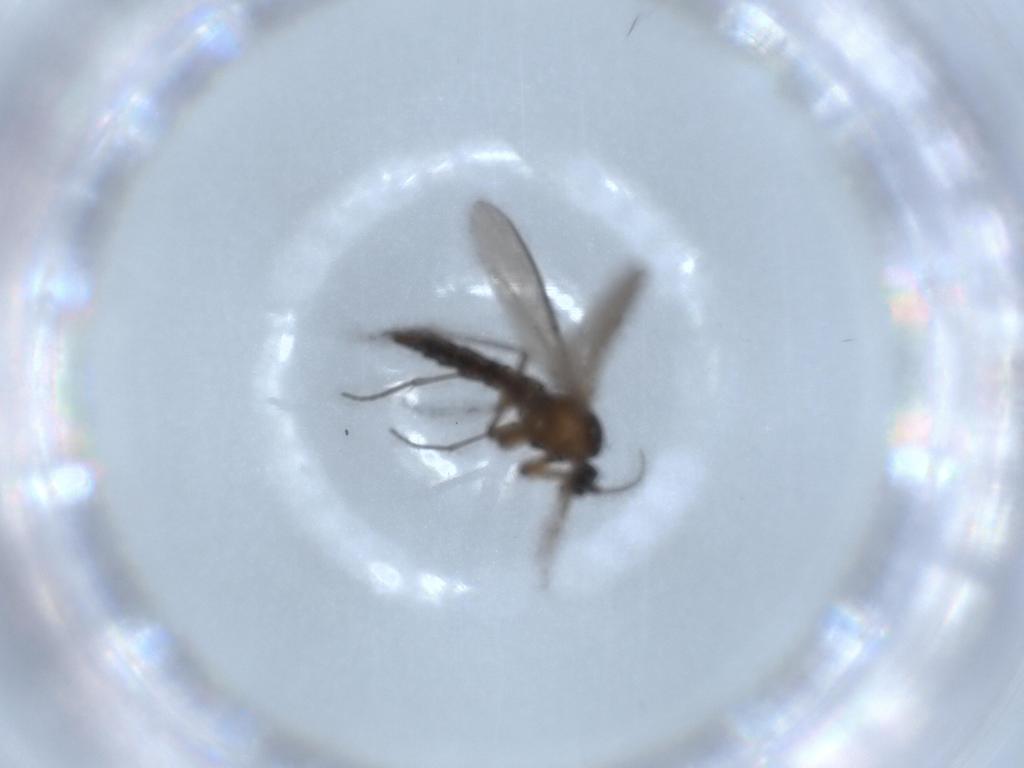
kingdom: Animalia
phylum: Arthropoda
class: Insecta
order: Diptera
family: Sciaridae
